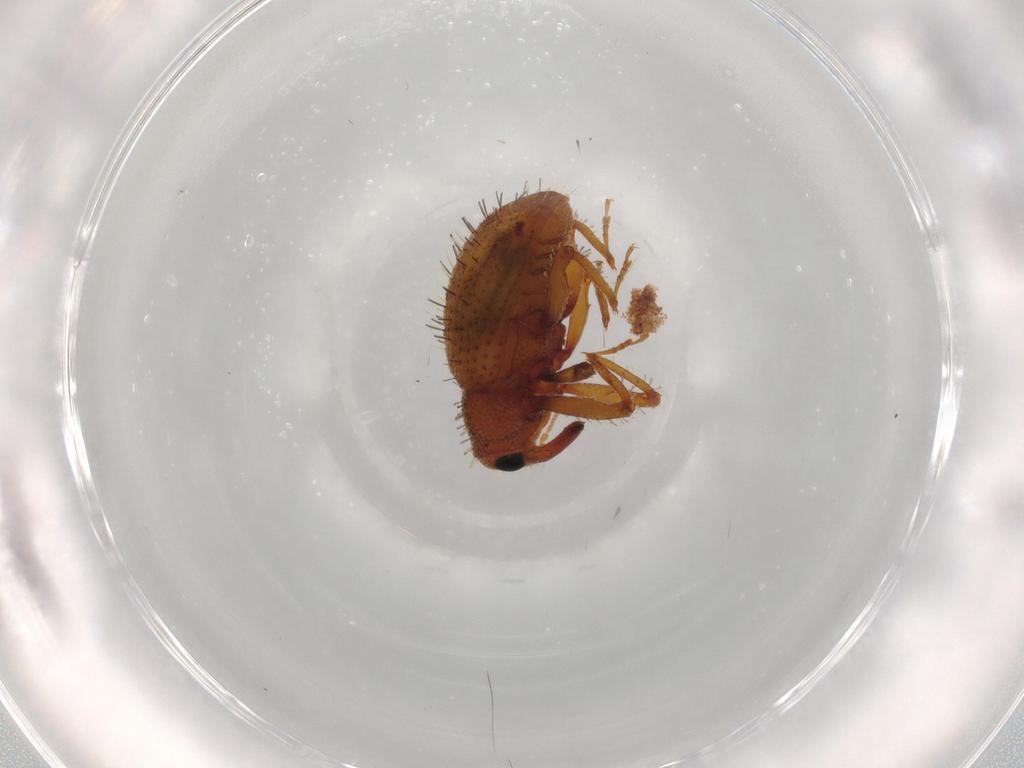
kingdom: Animalia
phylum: Arthropoda
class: Insecta
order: Coleoptera
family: Curculionidae
